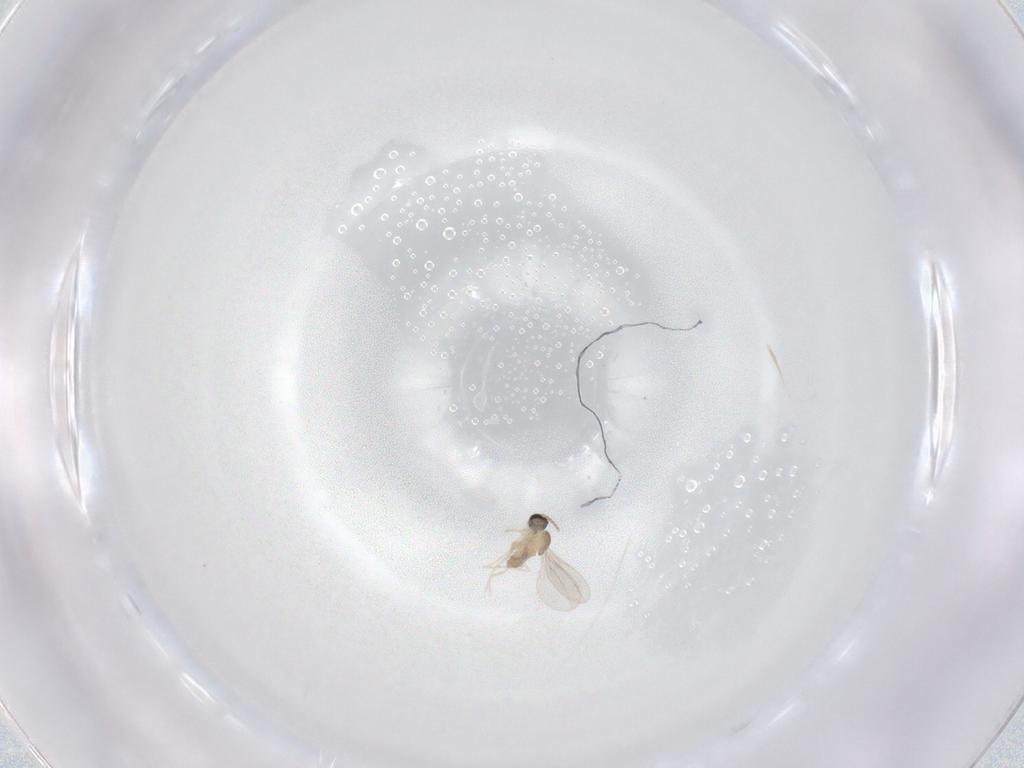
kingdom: Animalia
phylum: Arthropoda
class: Insecta
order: Diptera
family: Cecidomyiidae
